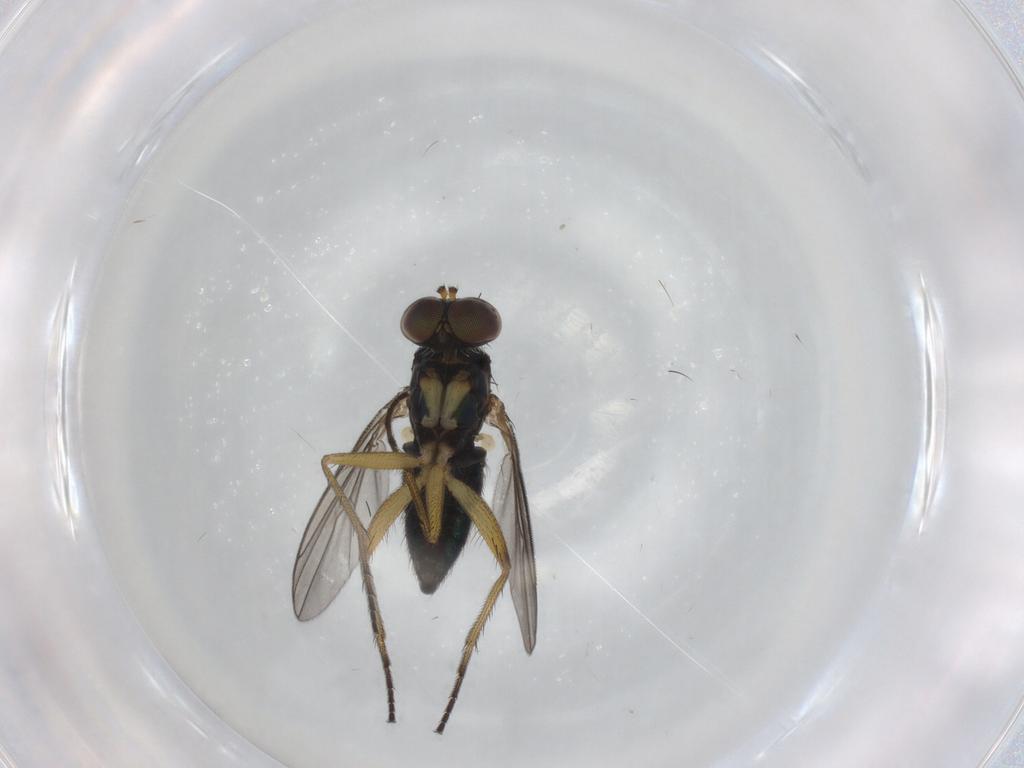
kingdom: Animalia
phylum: Arthropoda
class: Insecta
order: Diptera
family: Dolichopodidae
